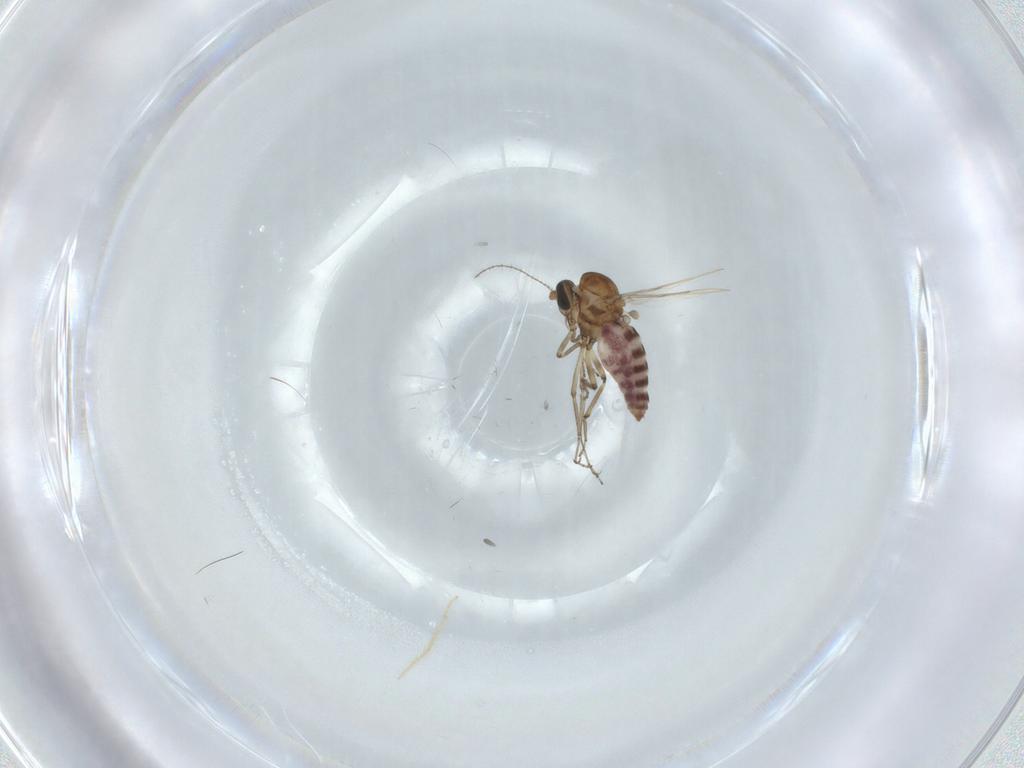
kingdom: Animalia
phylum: Arthropoda
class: Insecta
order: Diptera
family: Ceratopogonidae
